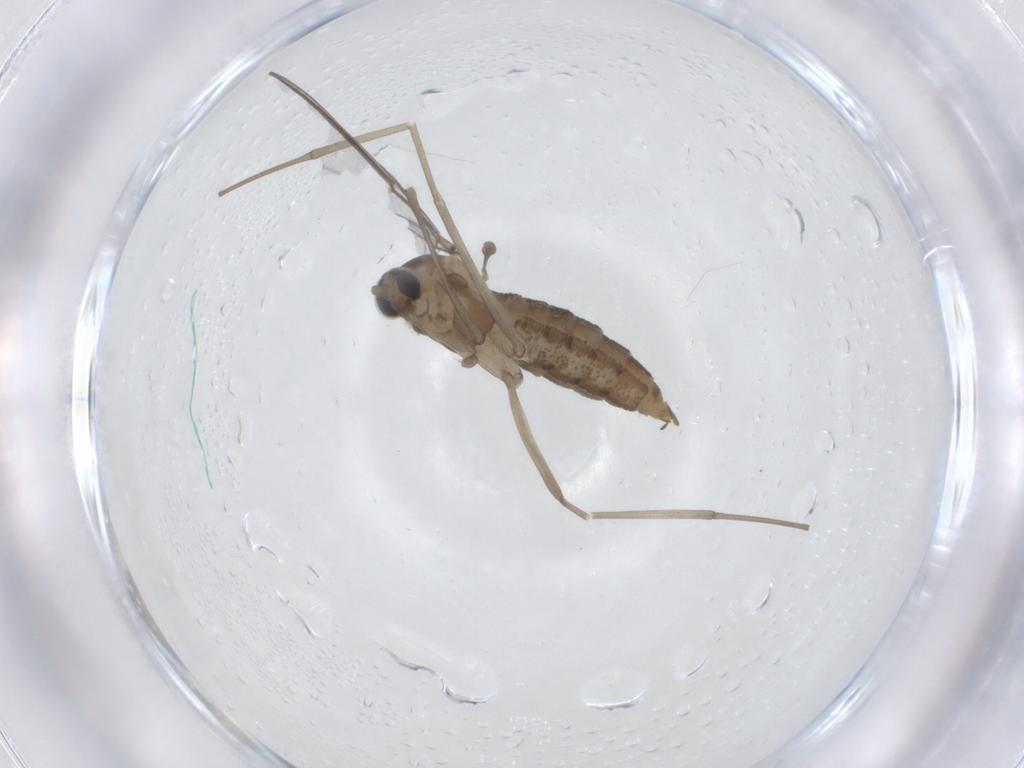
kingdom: Animalia
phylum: Arthropoda
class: Insecta
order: Diptera
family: Cecidomyiidae
